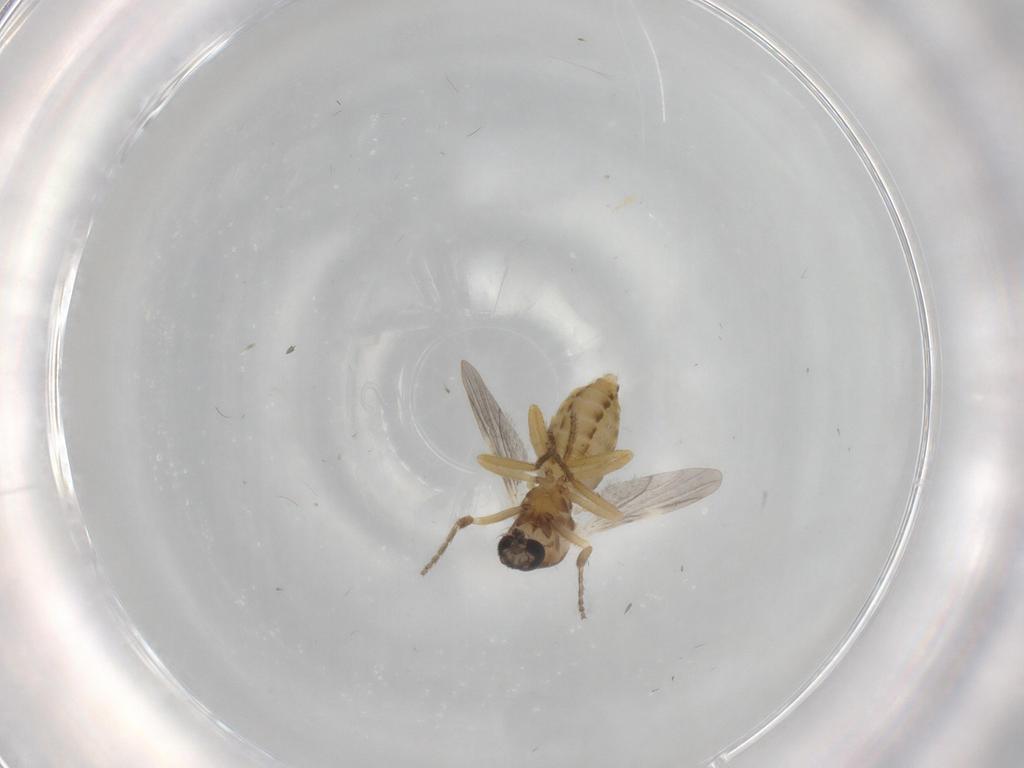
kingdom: Animalia
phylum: Arthropoda
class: Insecta
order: Diptera
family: Ceratopogonidae
